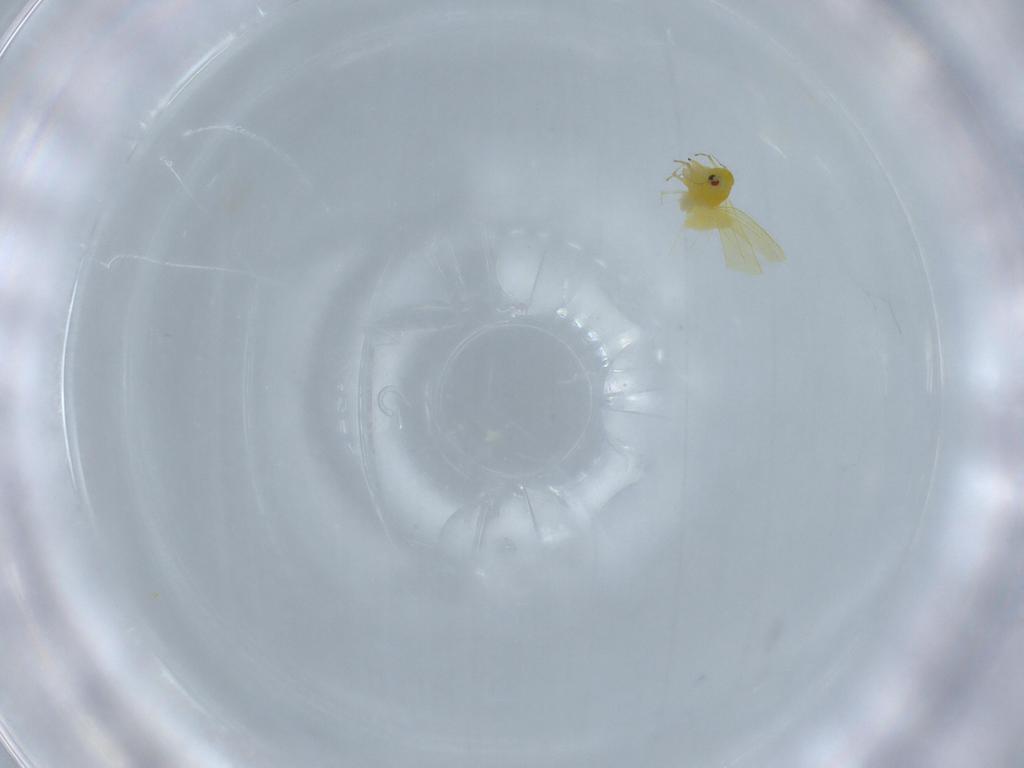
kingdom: Animalia
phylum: Arthropoda
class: Insecta
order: Hemiptera
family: Aleyrodidae
